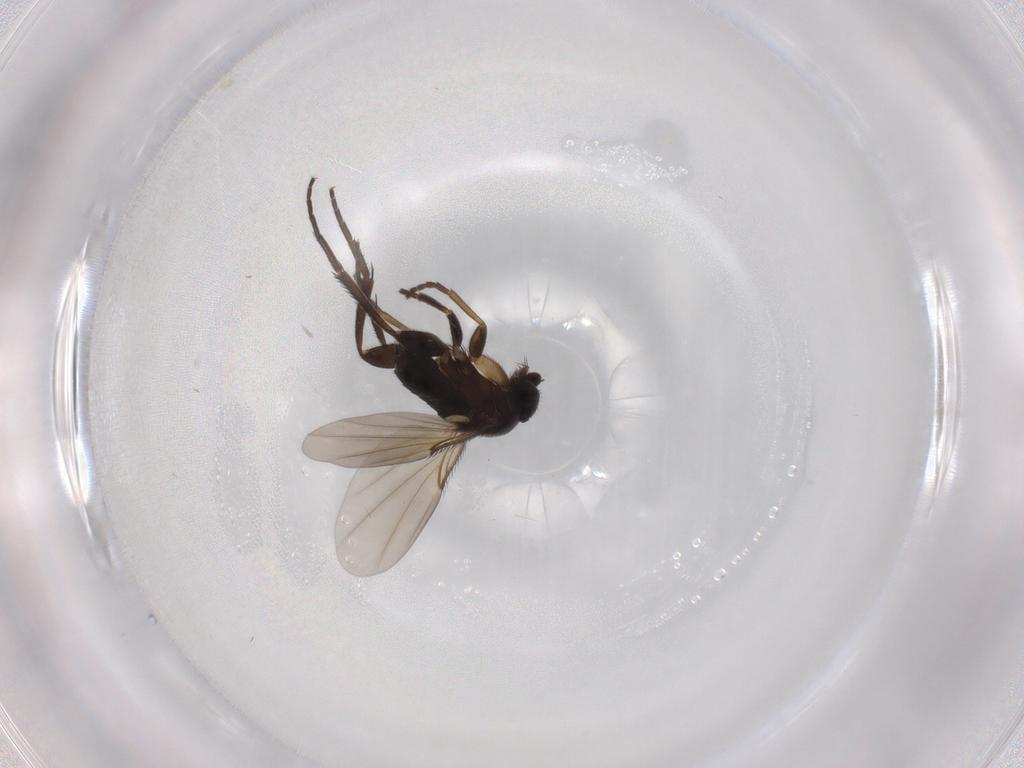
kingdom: Animalia
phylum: Arthropoda
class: Insecta
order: Diptera
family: Phoridae
